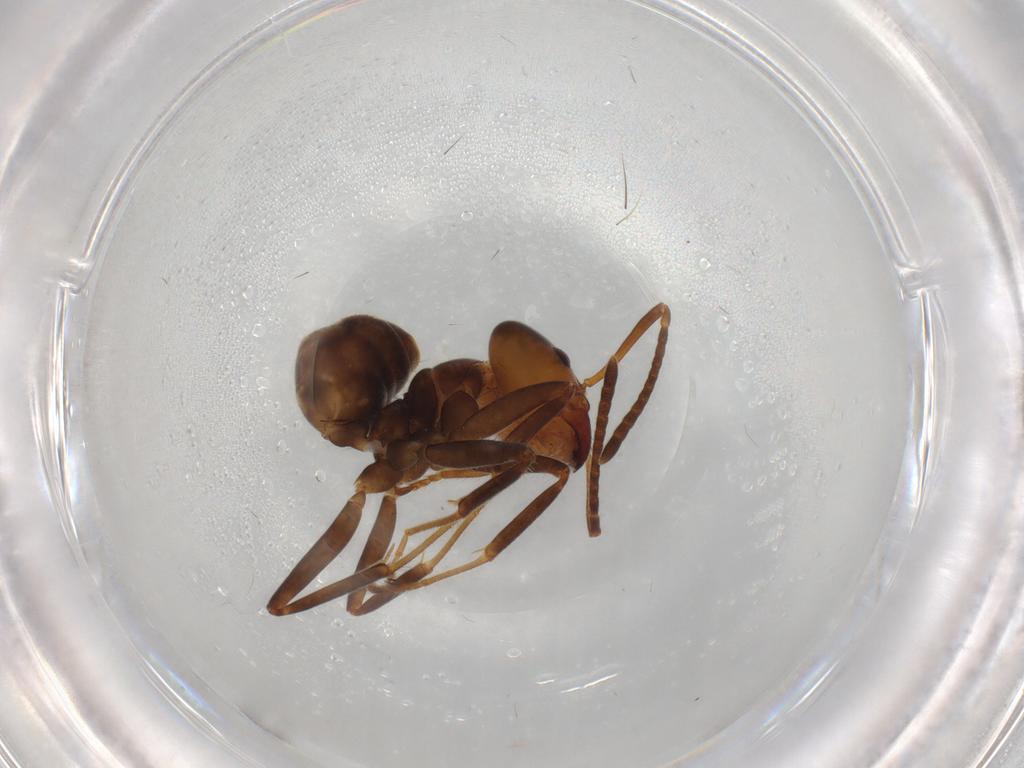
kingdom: Animalia
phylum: Arthropoda
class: Insecta
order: Hymenoptera
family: Formicidae
